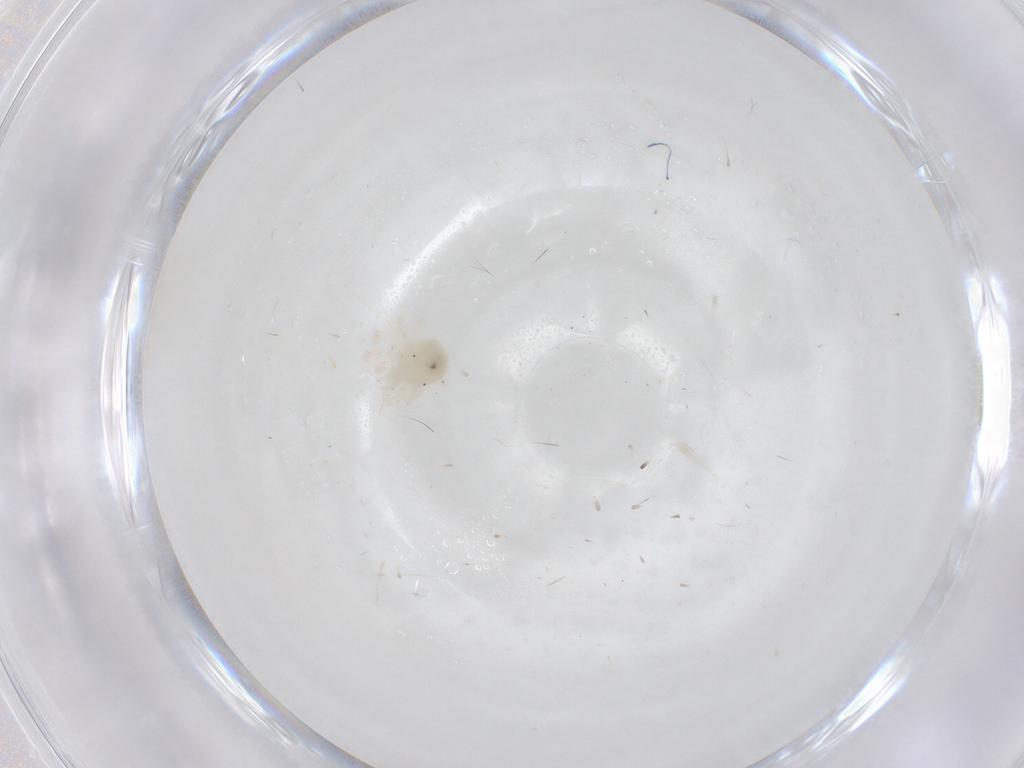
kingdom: Animalia
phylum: Arthropoda
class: Arachnida
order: Trombidiformes
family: Anystidae
